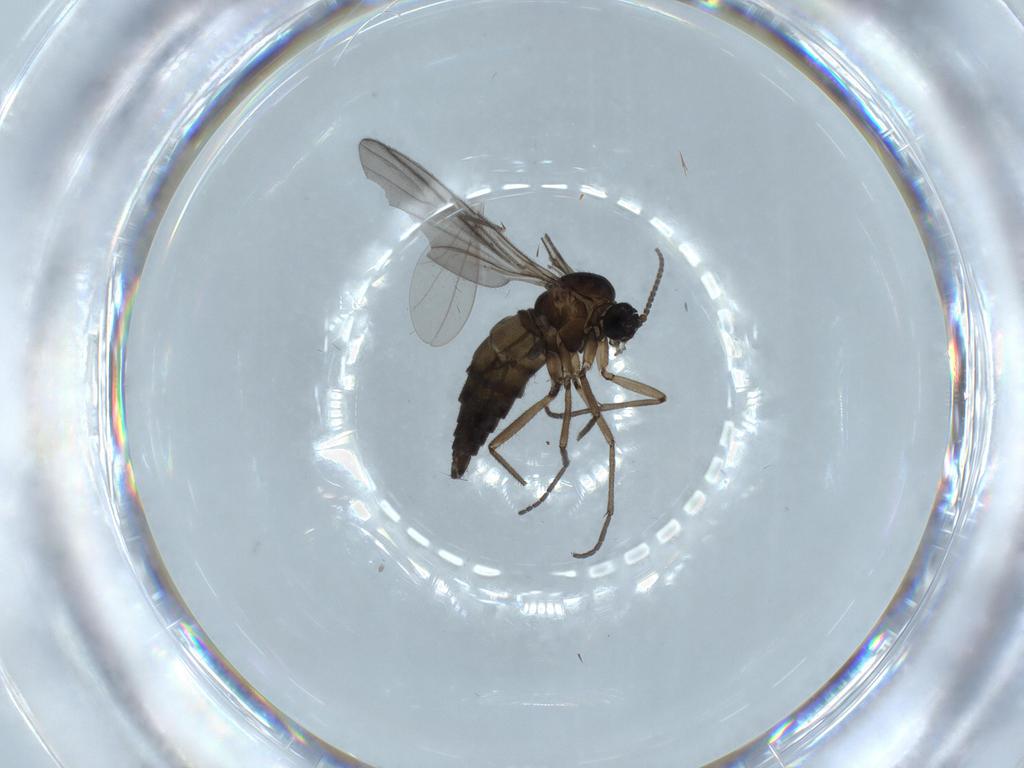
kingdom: Animalia
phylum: Arthropoda
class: Insecta
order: Diptera
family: Sciaridae
